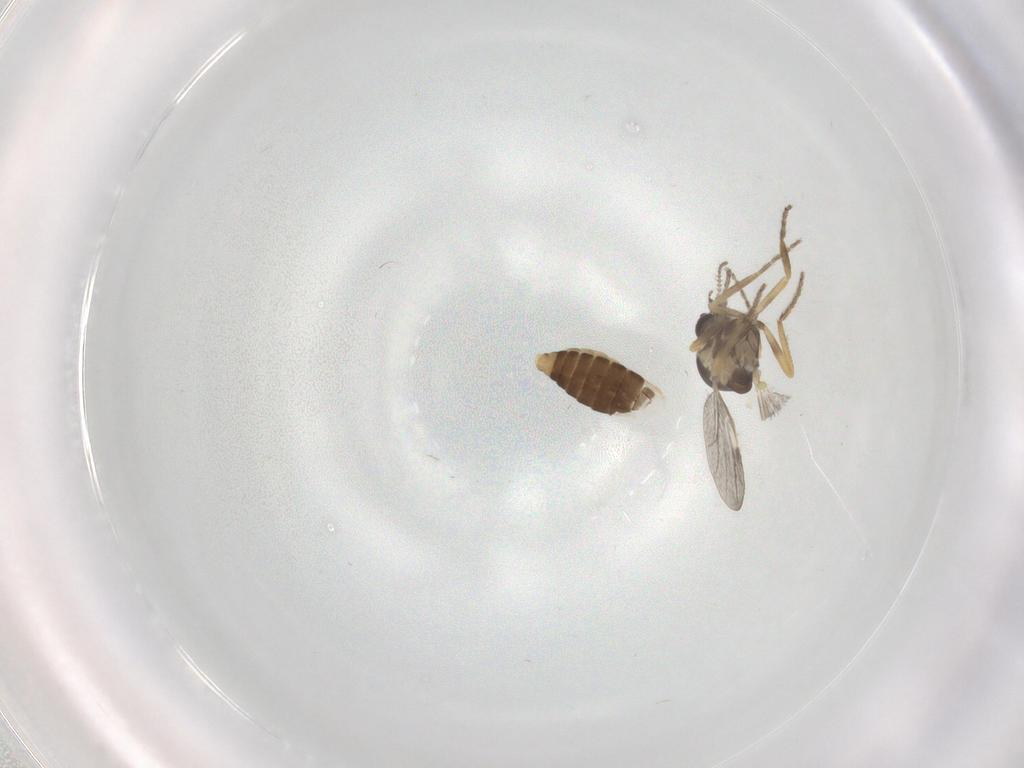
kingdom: Animalia
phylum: Arthropoda
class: Insecta
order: Diptera
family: Ceratopogonidae
